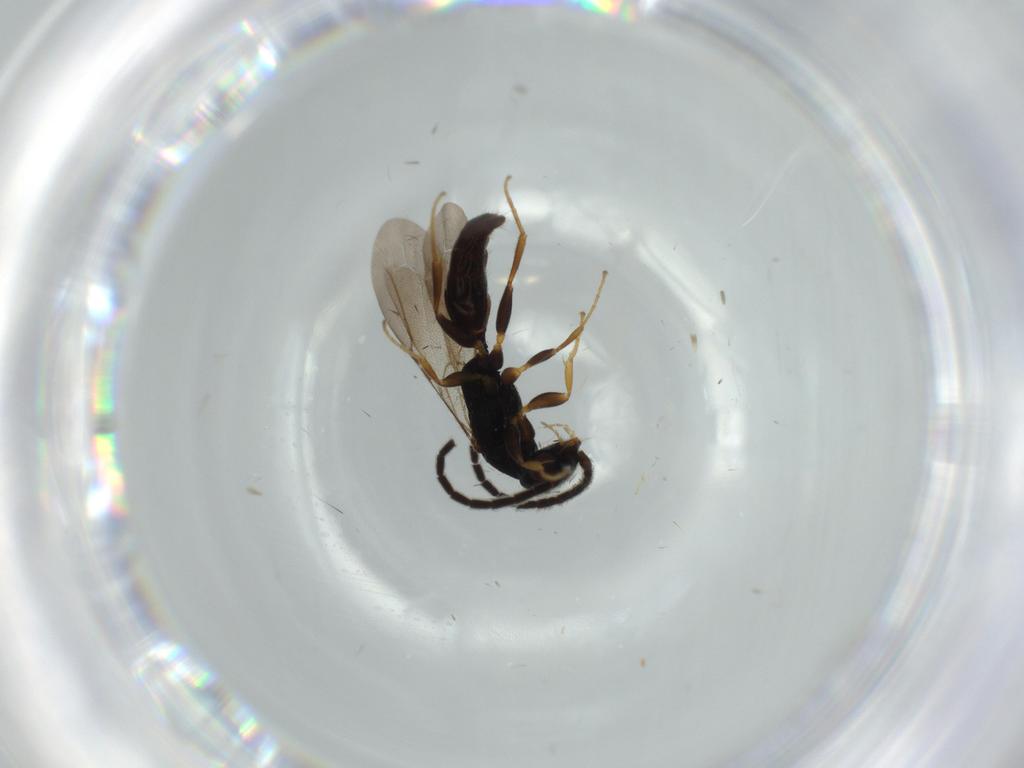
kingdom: Animalia
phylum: Arthropoda
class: Insecta
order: Hymenoptera
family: Bethylidae
